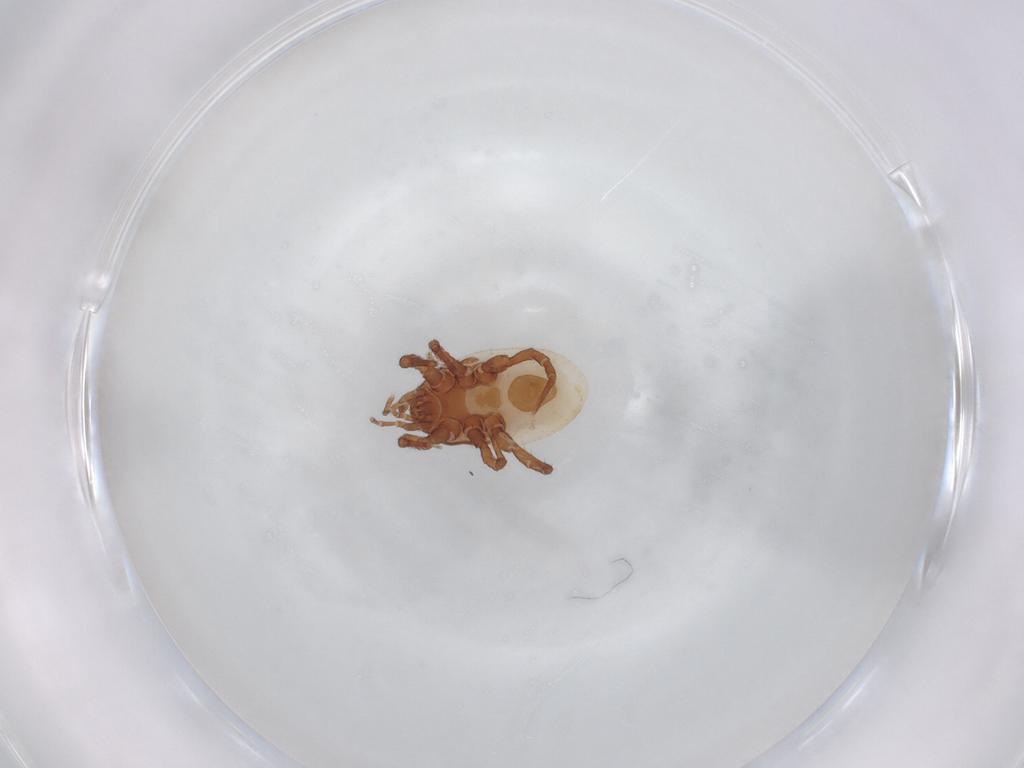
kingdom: Animalia
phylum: Arthropoda
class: Arachnida
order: Mesostigmata
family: Macrochelidae
